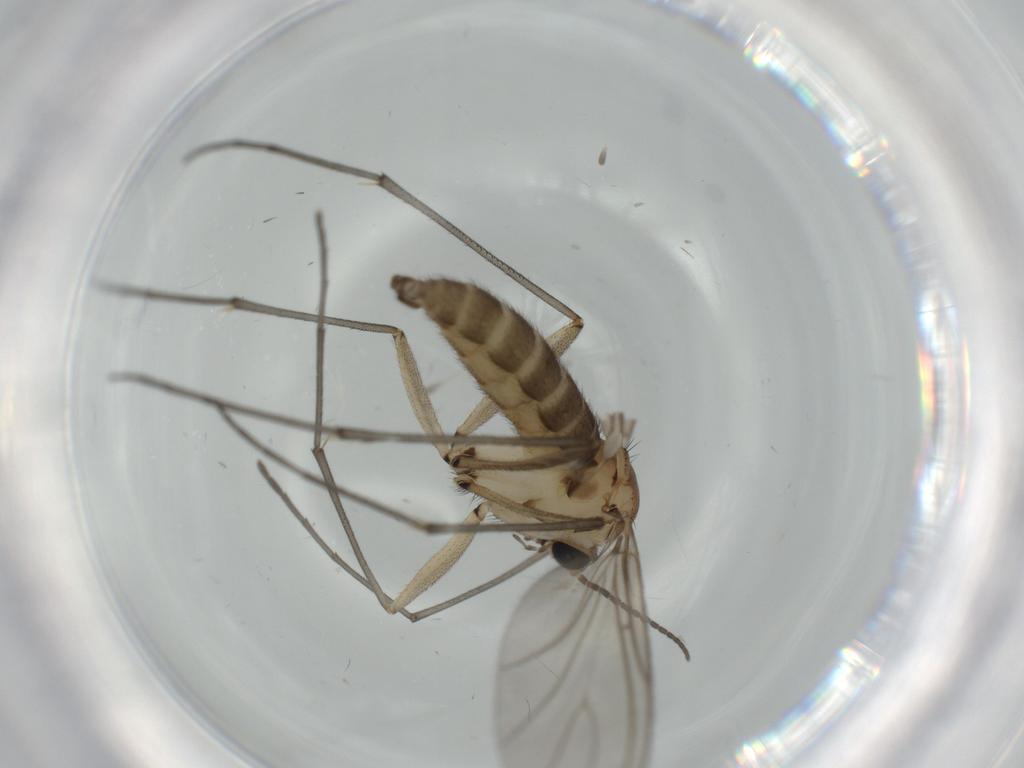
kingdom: Animalia
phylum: Arthropoda
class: Insecta
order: Diptera
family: Sciaridae
